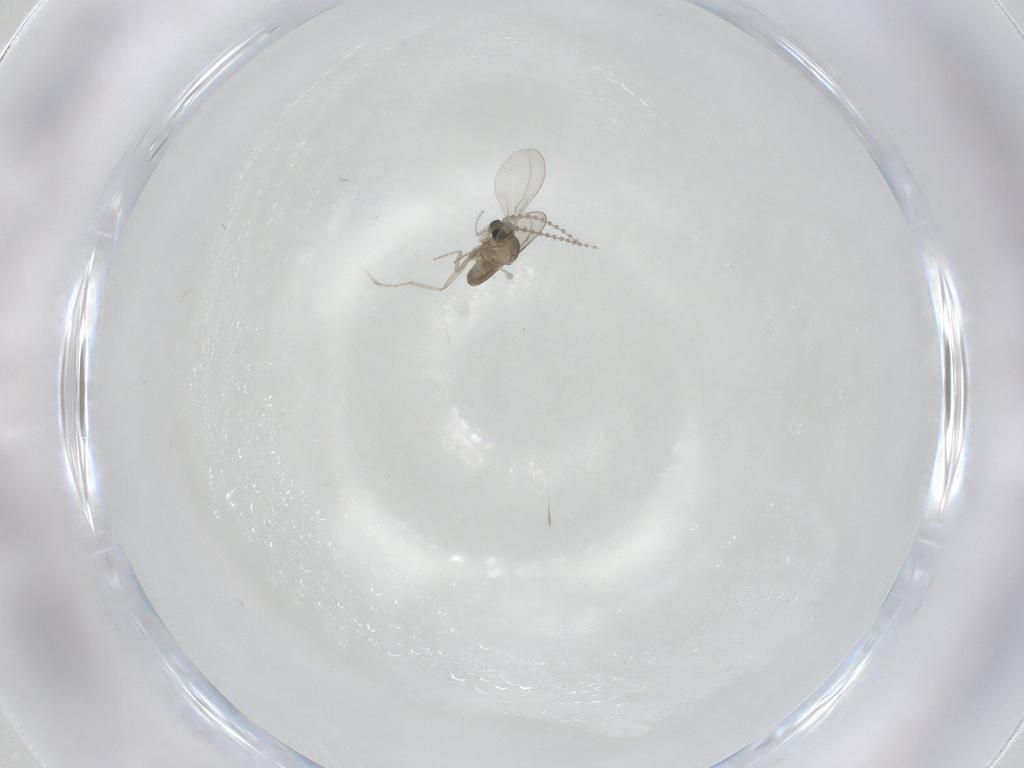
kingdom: Animalia
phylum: Arthropoda
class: Insecta
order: Diptera
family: Cecidomyiidae
